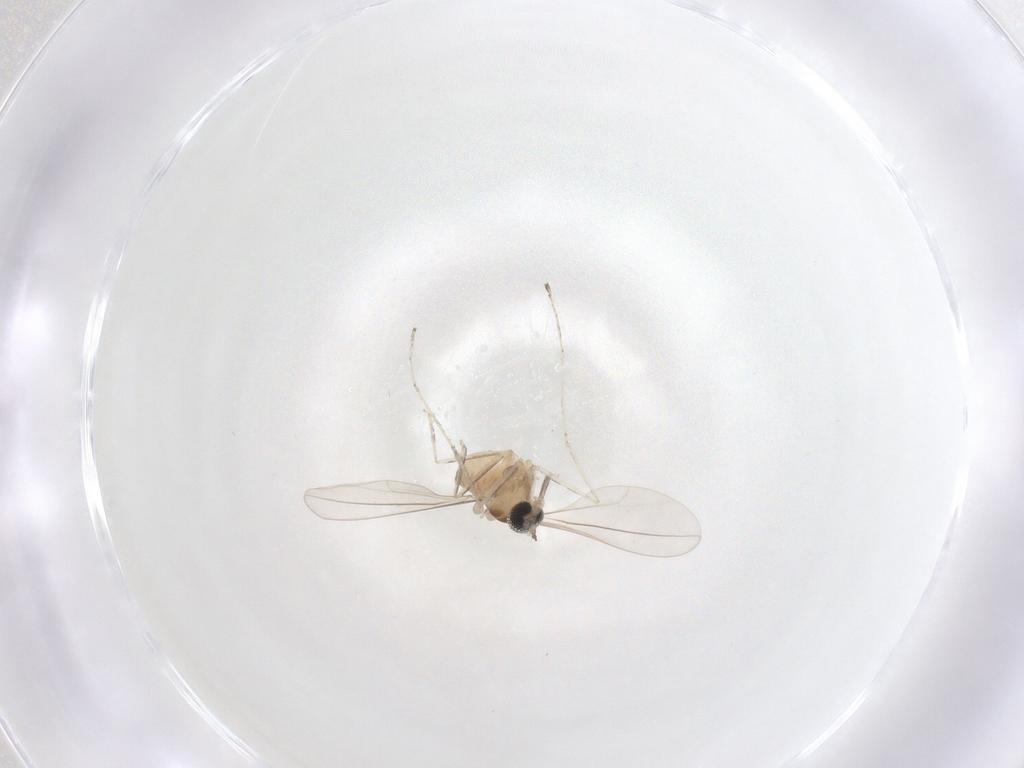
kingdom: Animalia
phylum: Arthropoda
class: Insecta
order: Diptera
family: Cecidomyiidae
